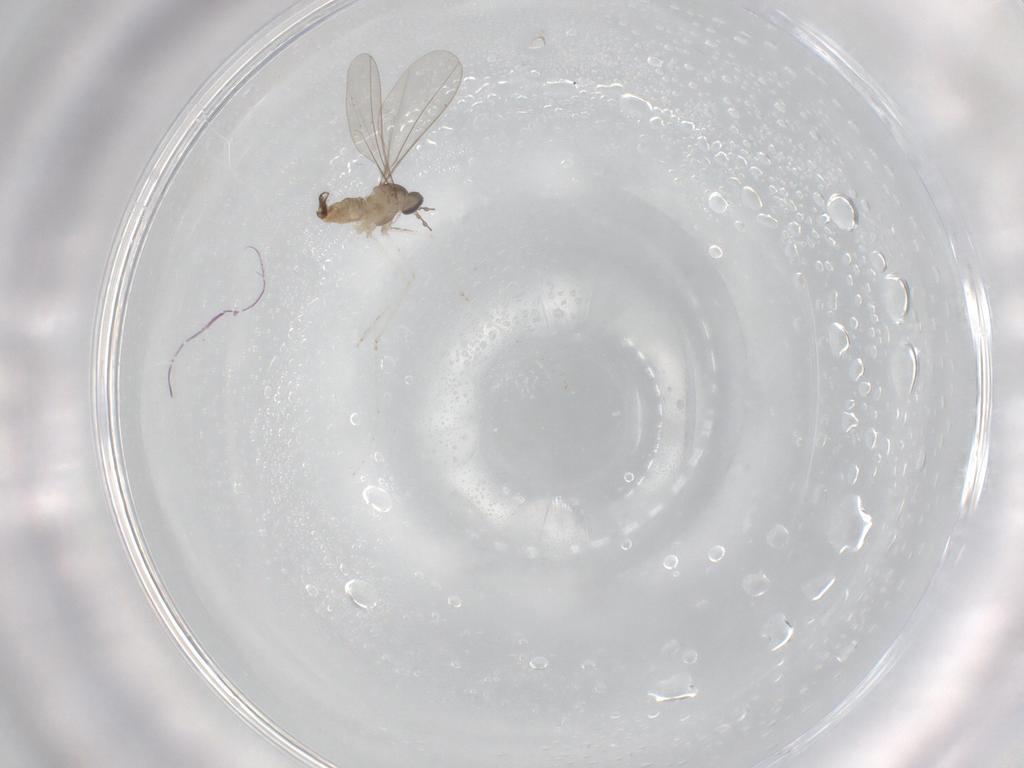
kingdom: Animalia
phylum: Arthropoda
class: Insecta
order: Diptera
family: Cecidomyiidae
